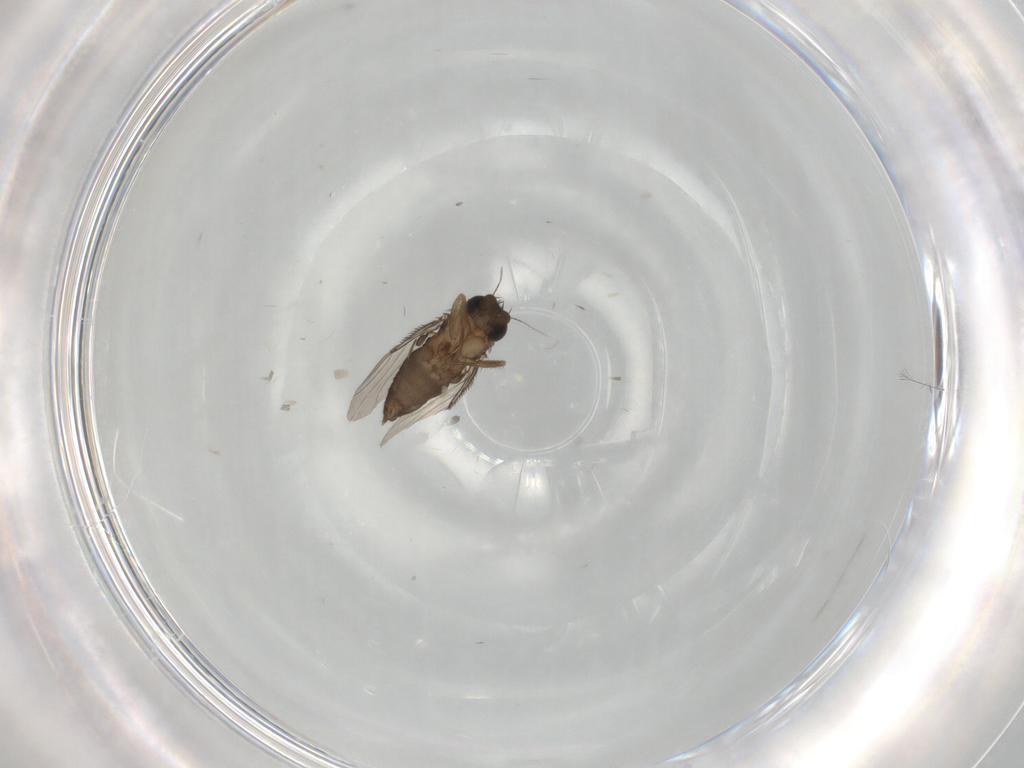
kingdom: Animalia
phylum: Arthropoda
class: Insecta
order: Diptera
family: Phoridae
